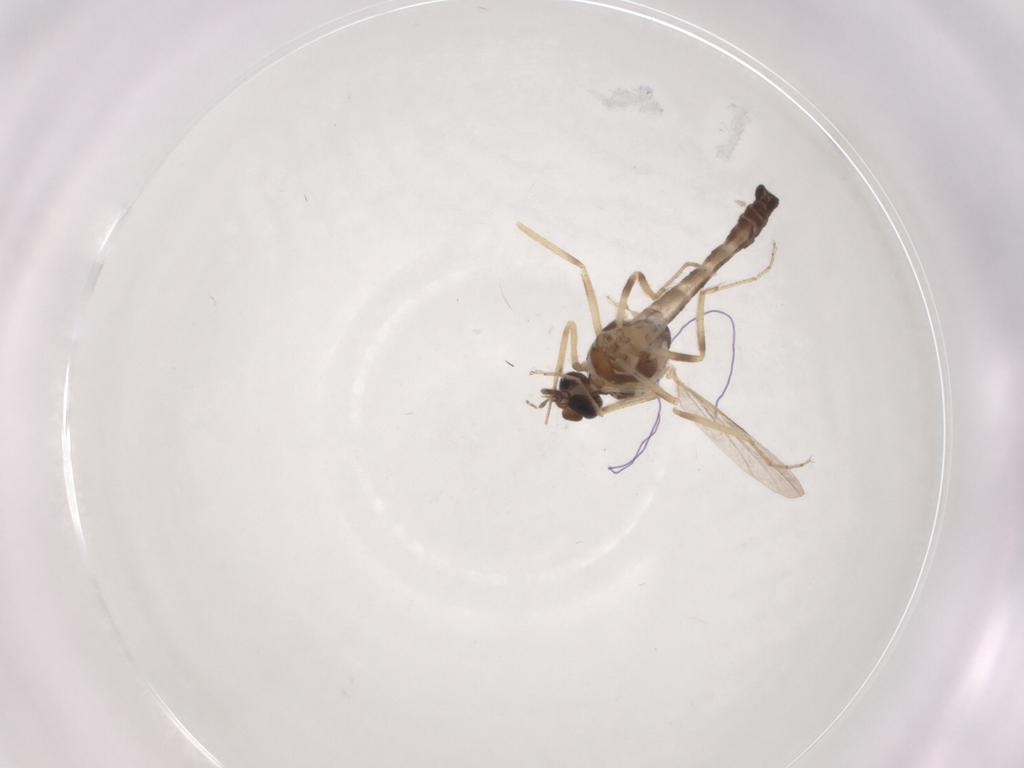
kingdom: Animalia
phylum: Arthropoda
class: Insecta
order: Diptera
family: Ceratopogonidae
